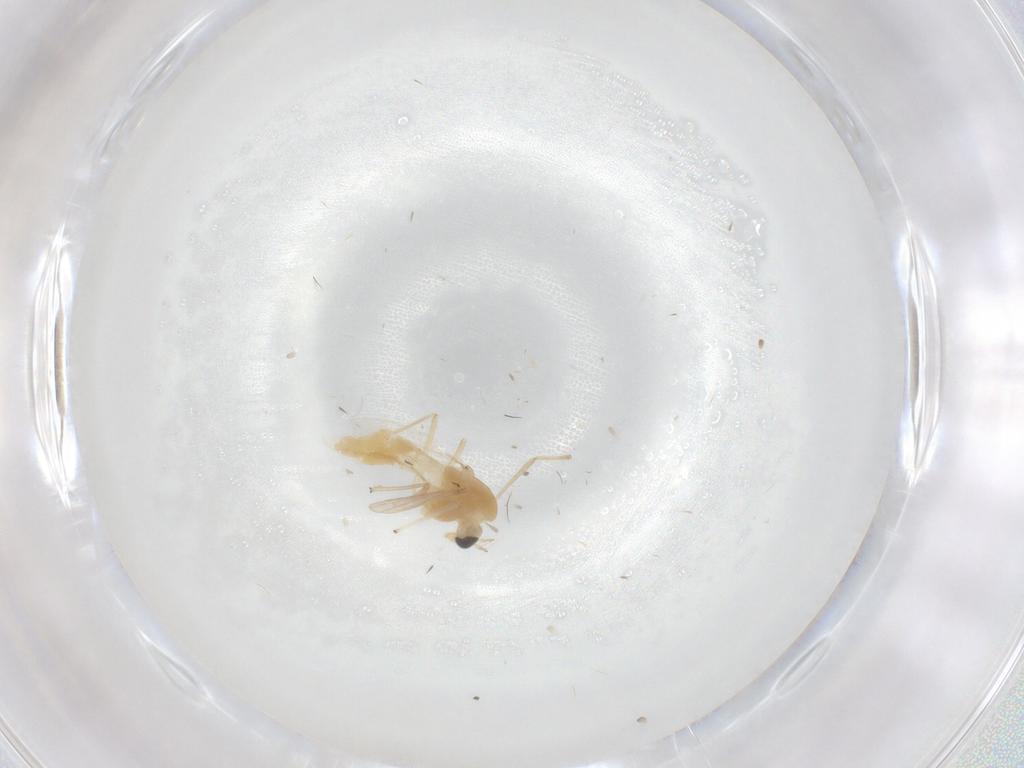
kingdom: Animalia
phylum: Arthropoda
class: Insecta
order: Diptera
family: Chironomidae
